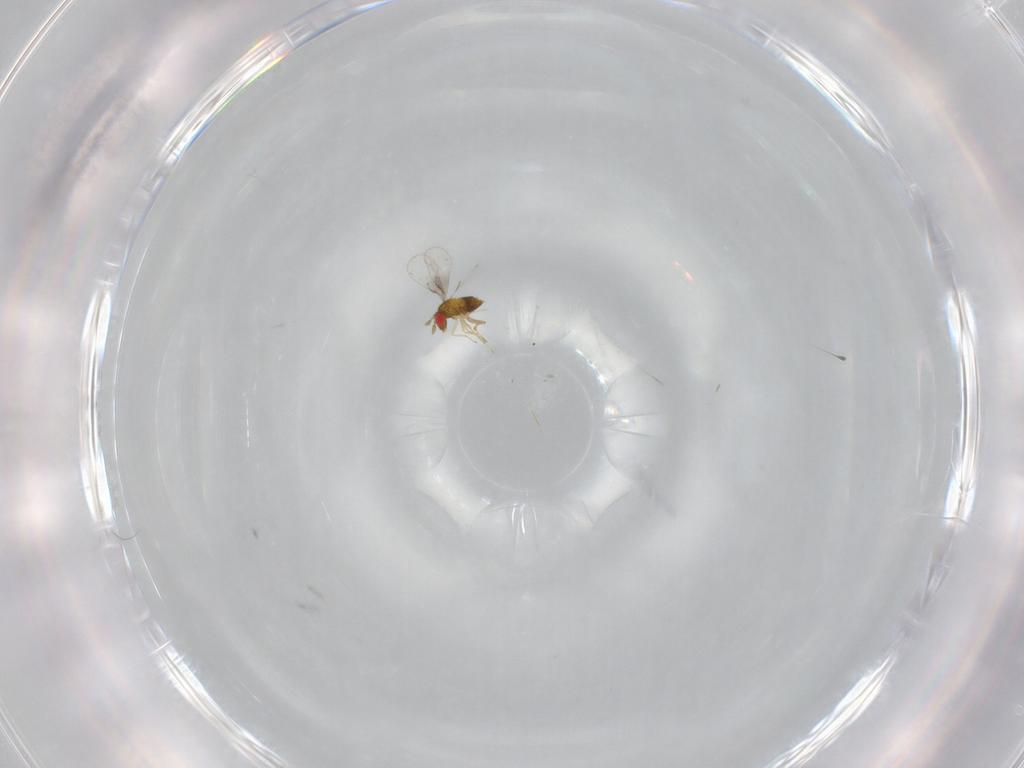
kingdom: Animalia
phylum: Arthropoda
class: Insecta
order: Hymenoptera
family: Trichogrammatidae
